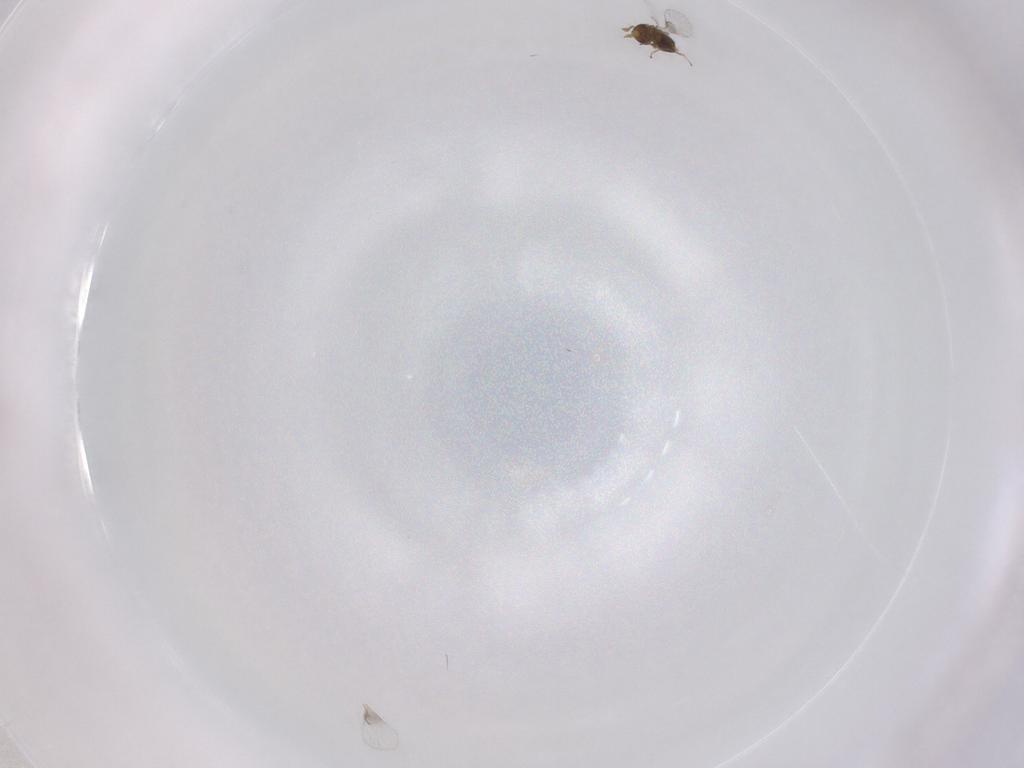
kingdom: Animalia
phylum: Arthropoda
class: Insecta
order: Hymenoptera
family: Trichogrammatidae
